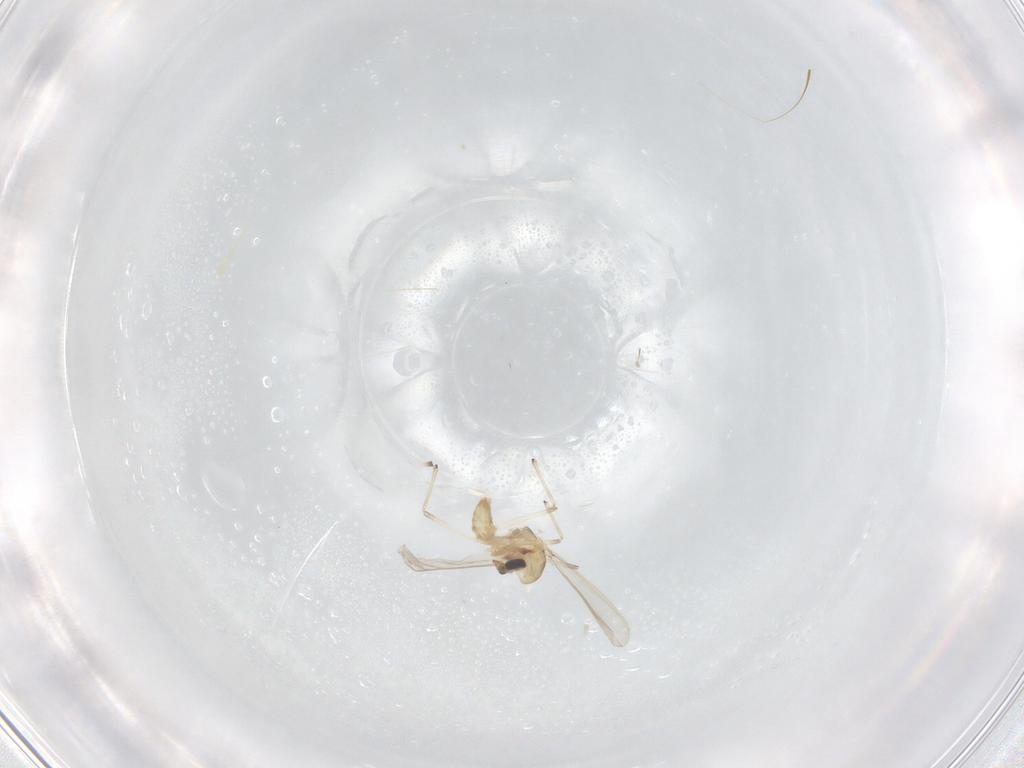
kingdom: Animalia
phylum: Arthropoda
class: Insecta
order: Diptera
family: Chironomidae
